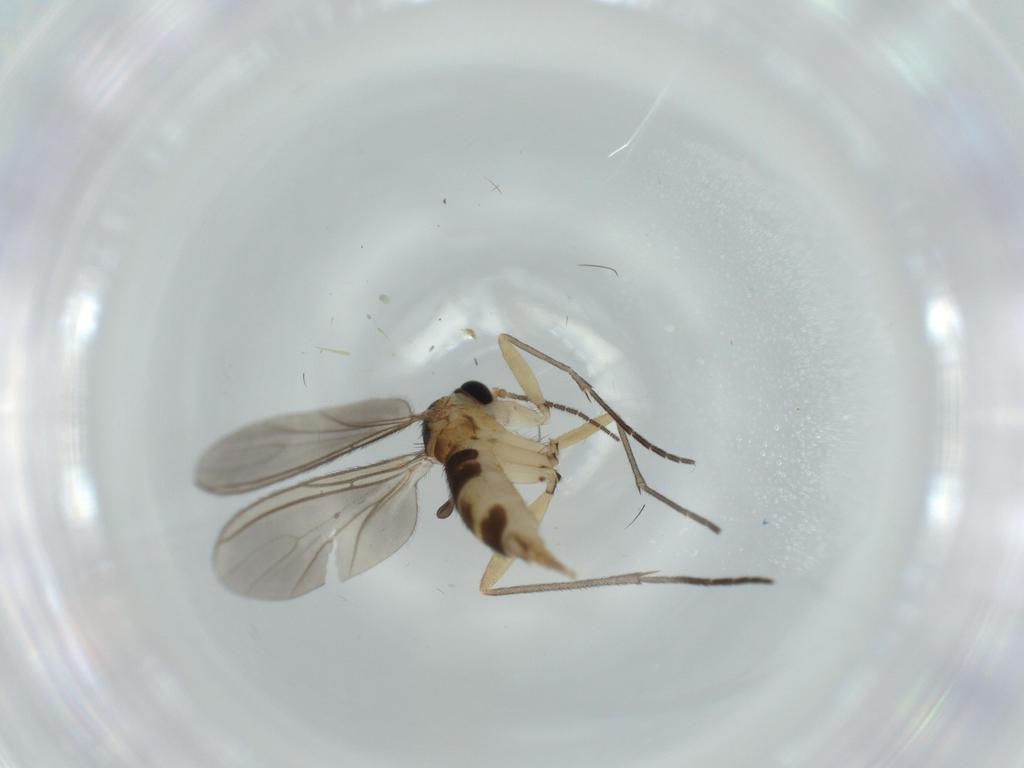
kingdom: Animalia
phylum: Arthropoda
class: Insecta
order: Diptera
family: Sciaridae
